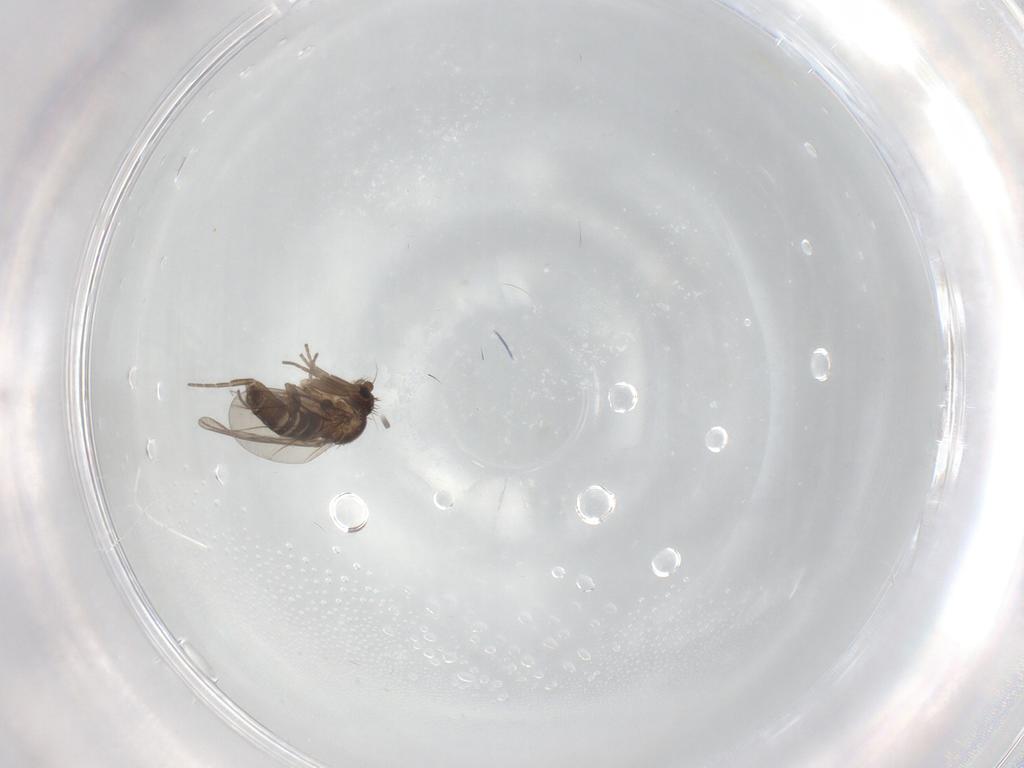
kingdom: Animalia
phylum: Arthropoda
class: Insecta
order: Diptera
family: Phoridae
